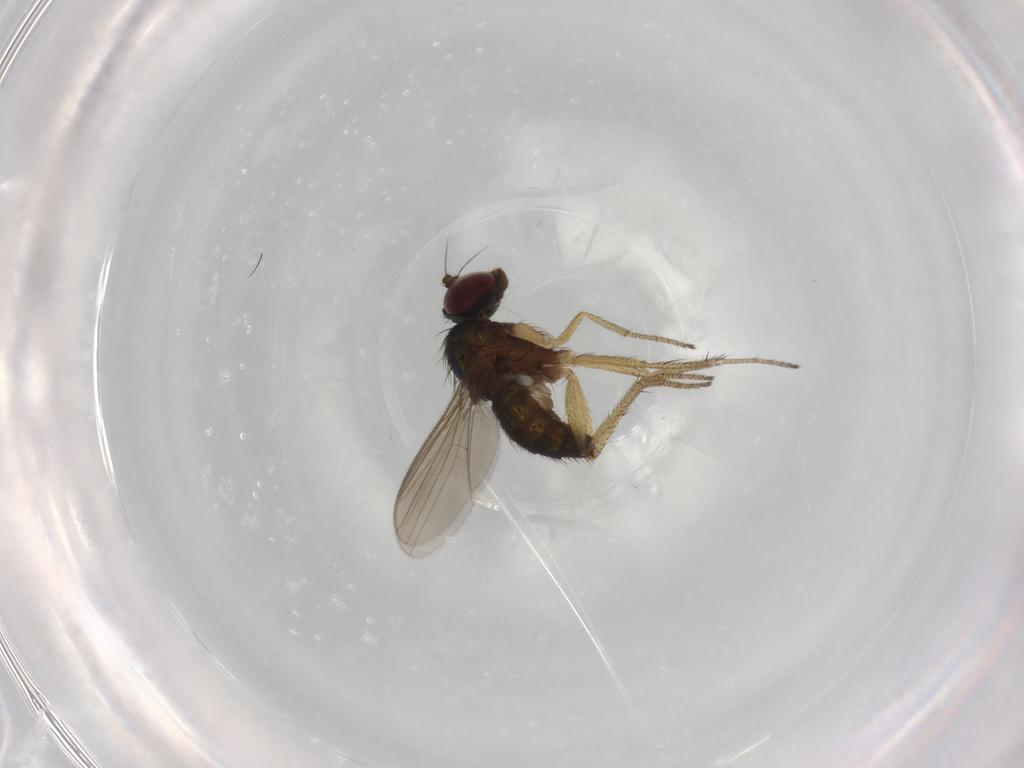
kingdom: Animalia
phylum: Arthropoda
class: Insecta
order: Diptera
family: Dolichopodidae
